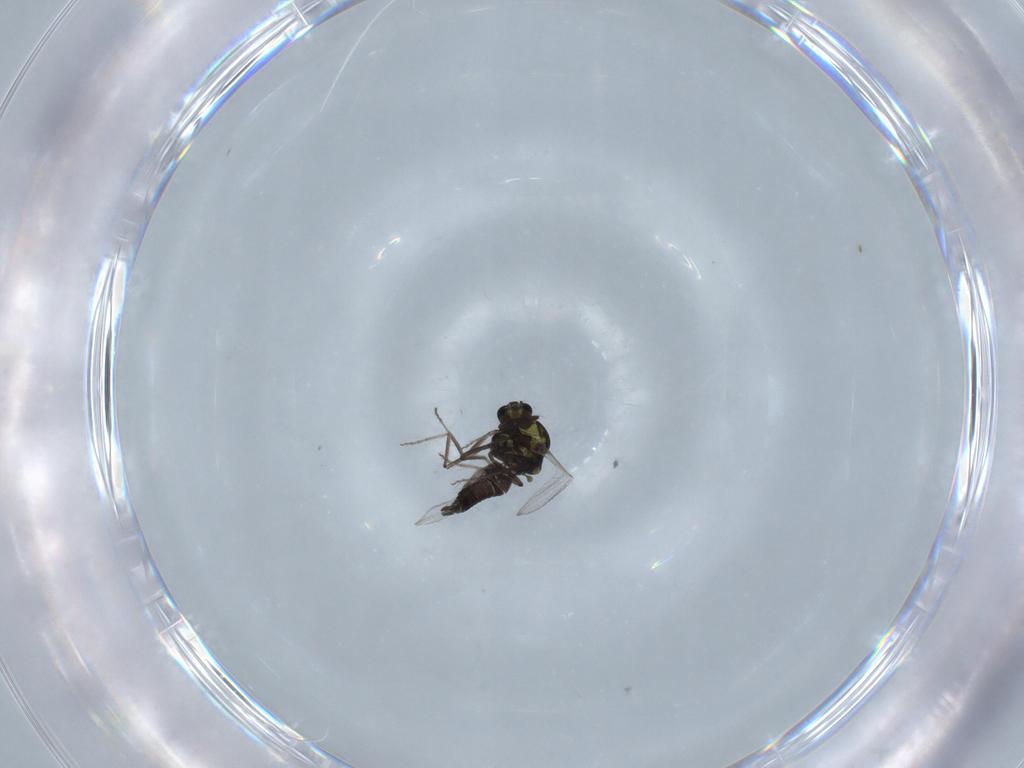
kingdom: Animalia
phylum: Arthropoda
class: Insecta
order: Diptera
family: Ceratopogonidae
